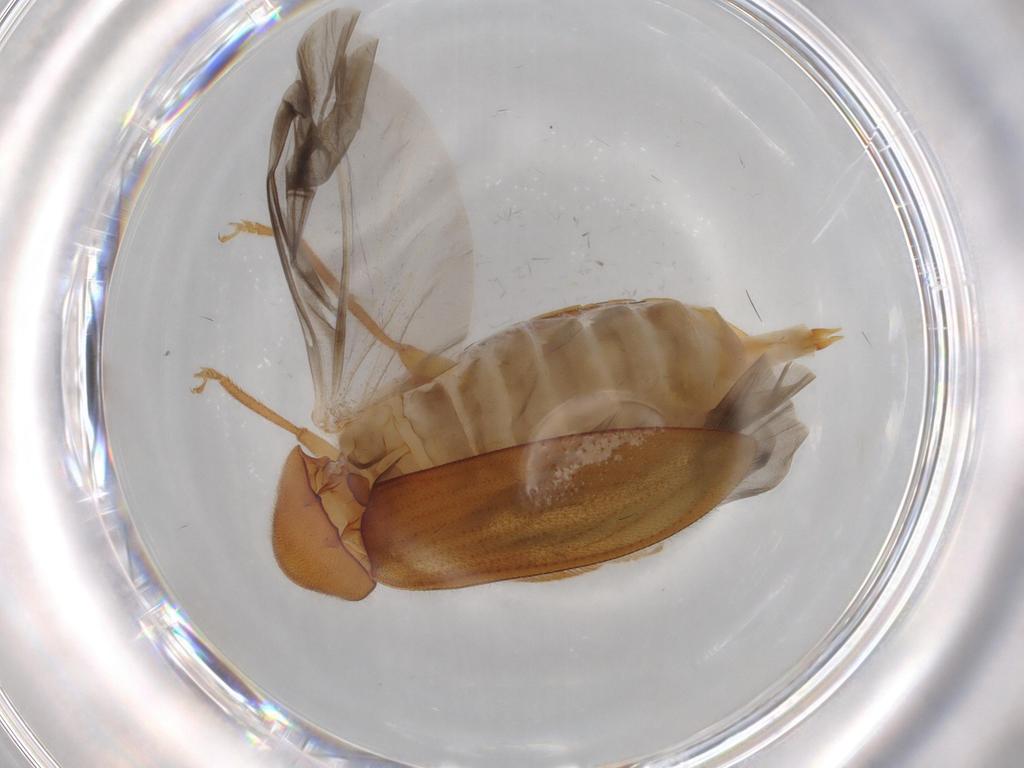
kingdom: Animalia
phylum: Arthropoda
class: Insecta
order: Coleoptera
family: Ptilodactylidae
